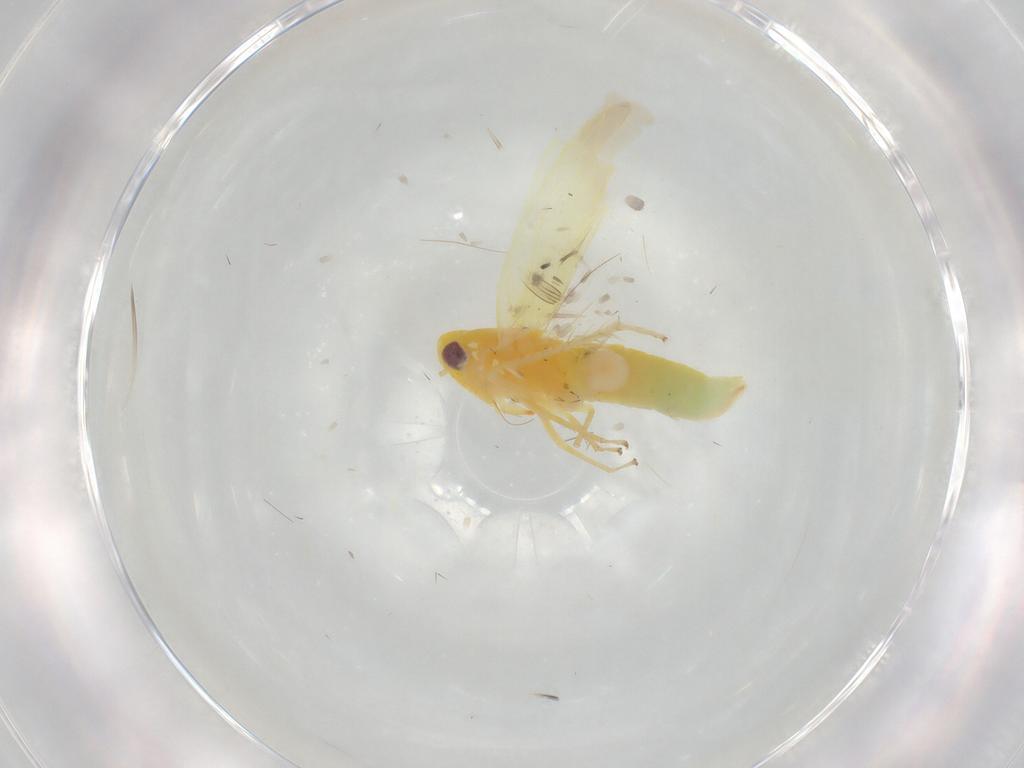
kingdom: Animalia
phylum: Arthropoda
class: Insecta
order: Hemiptera
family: Cicadellidae
